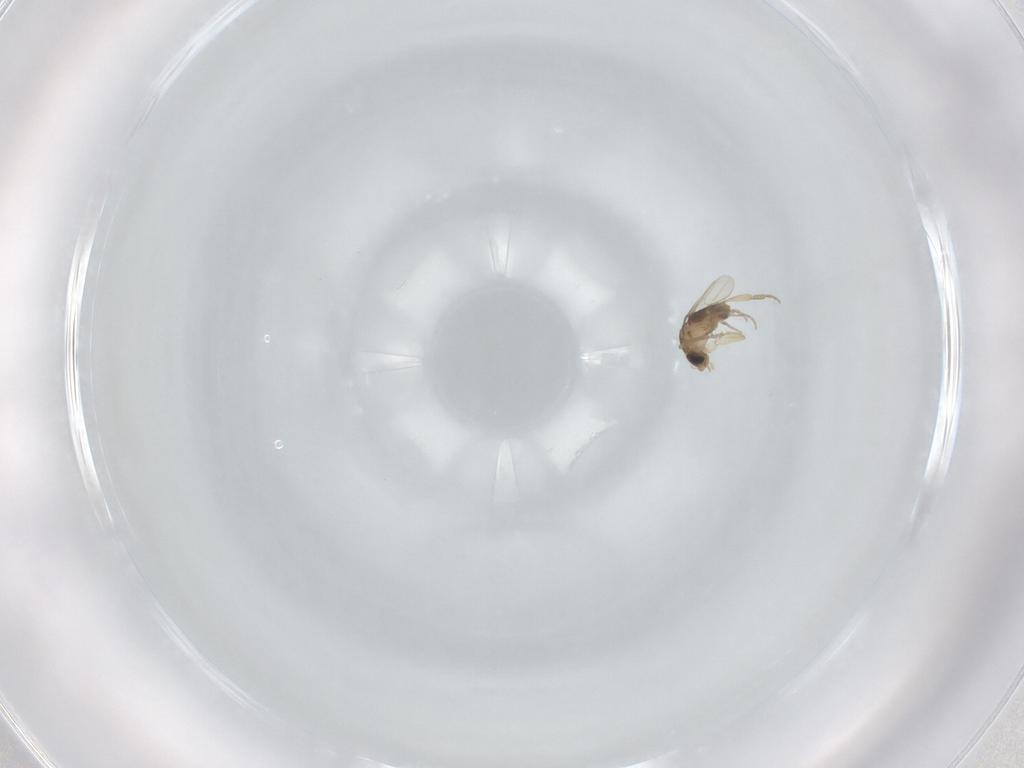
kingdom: Animalia
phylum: Arthropoda
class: Insecta
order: Diptera
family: Phoridae
